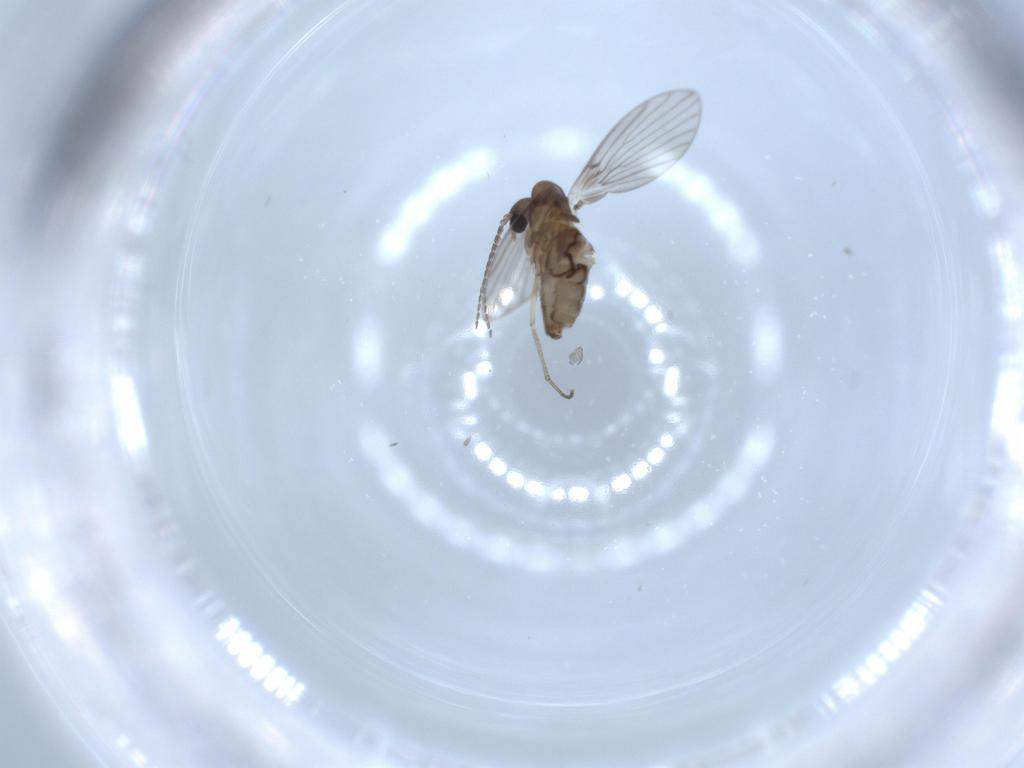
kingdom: Animalia
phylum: Arthropoda
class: Insecta
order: Diptera
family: Psychodidae
